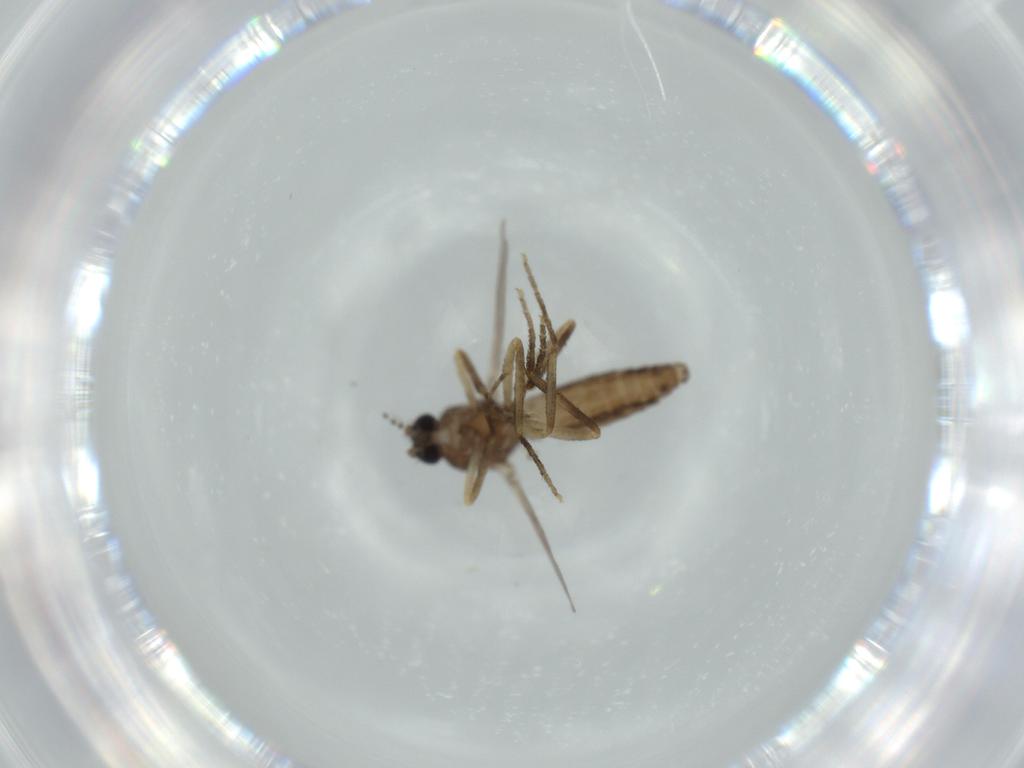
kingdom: Animalia
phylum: Arthropoda
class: Insecta
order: Diptera
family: Ceratopogonidae
